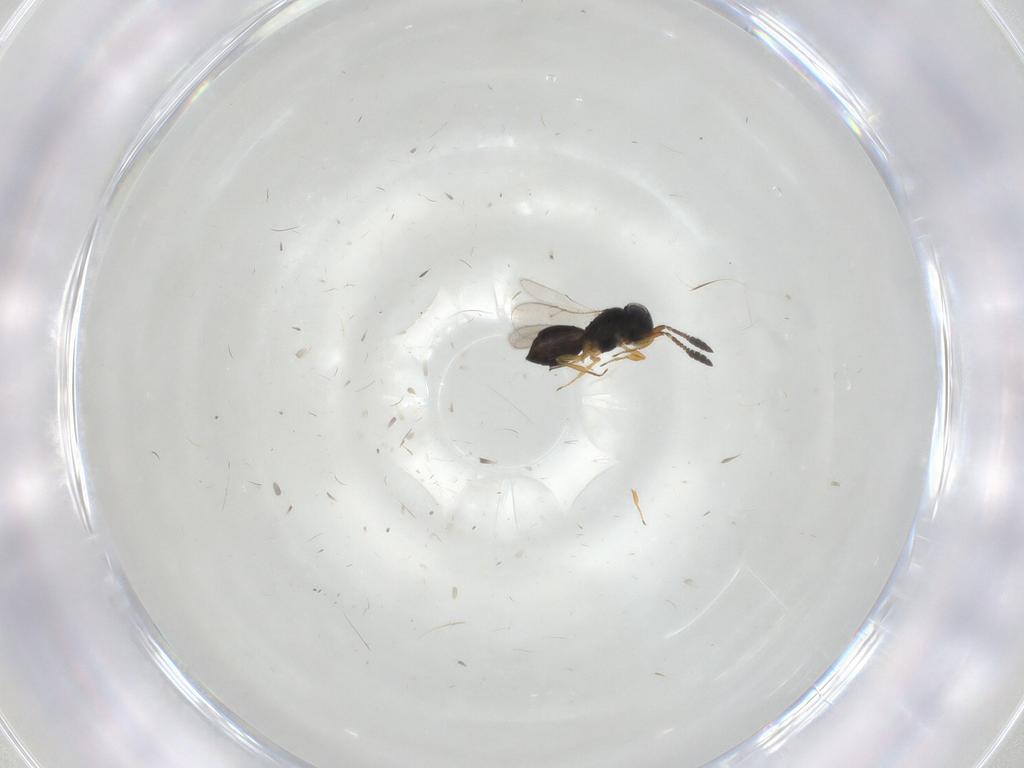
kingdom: Animalia
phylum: Arthropoda
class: Insecta
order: Hymenoptera
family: Scelionidae
